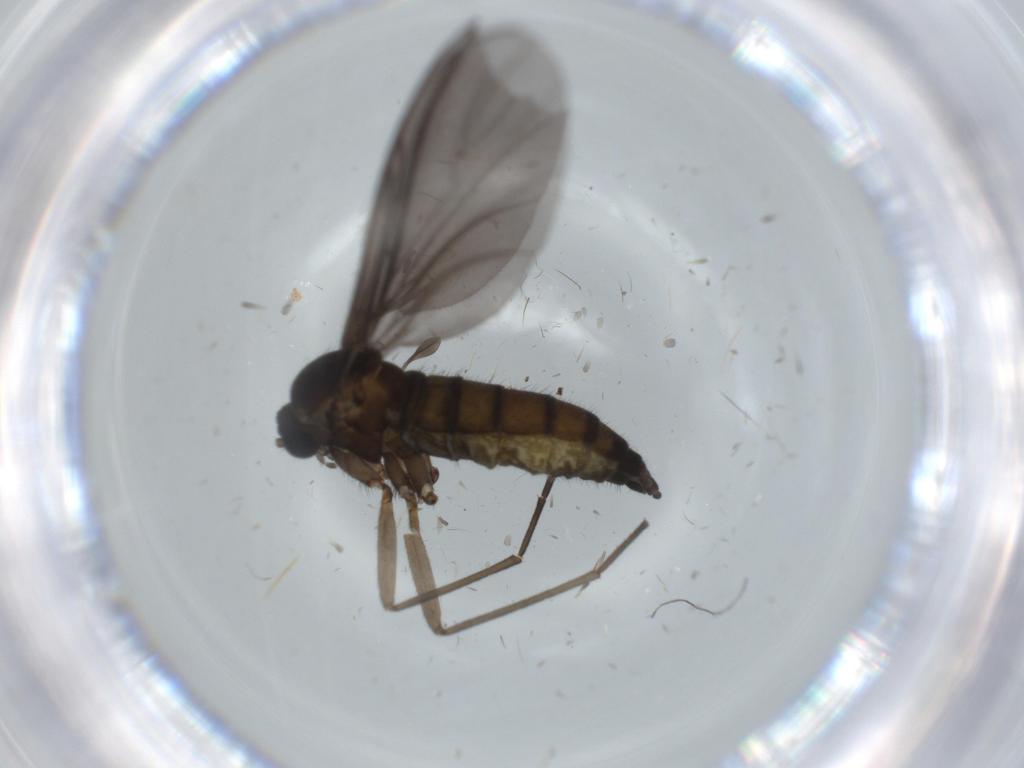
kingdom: Animalia
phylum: Arthropoda
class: Insecta
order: Diptera
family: Sciaridae
